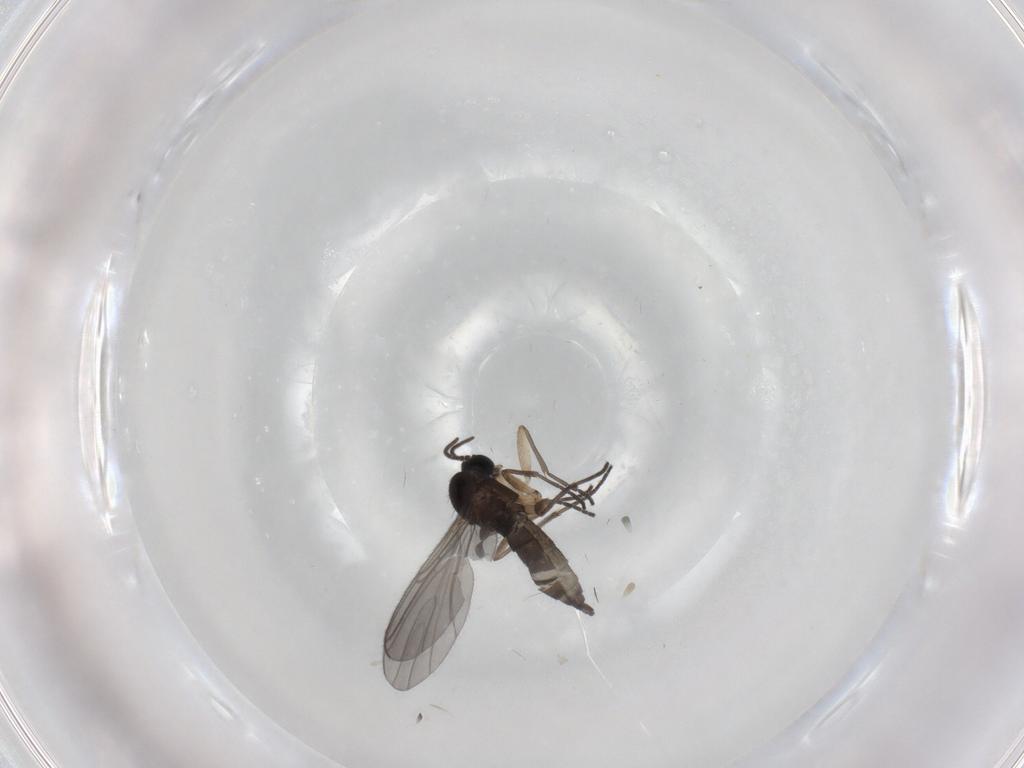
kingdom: Animalia
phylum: Arthropoda
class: Insecta
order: Diptera
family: Sciaridae
